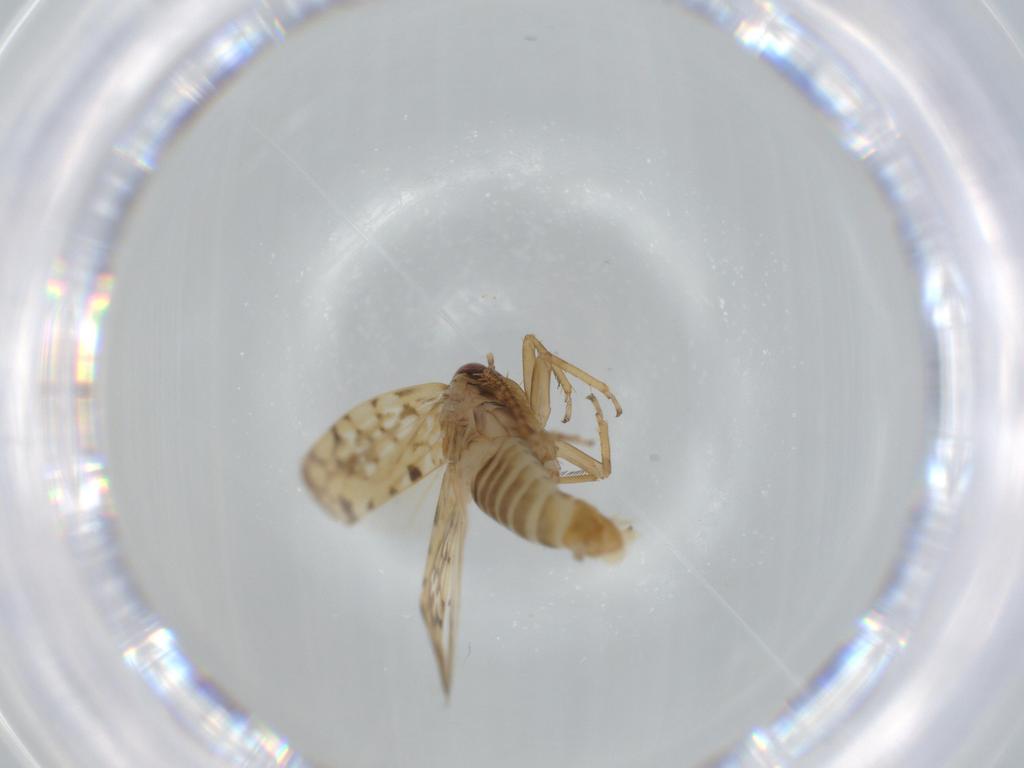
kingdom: Animalia
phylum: Arthropoda
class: Insecta
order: Hemiptera
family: Cicadellidae
